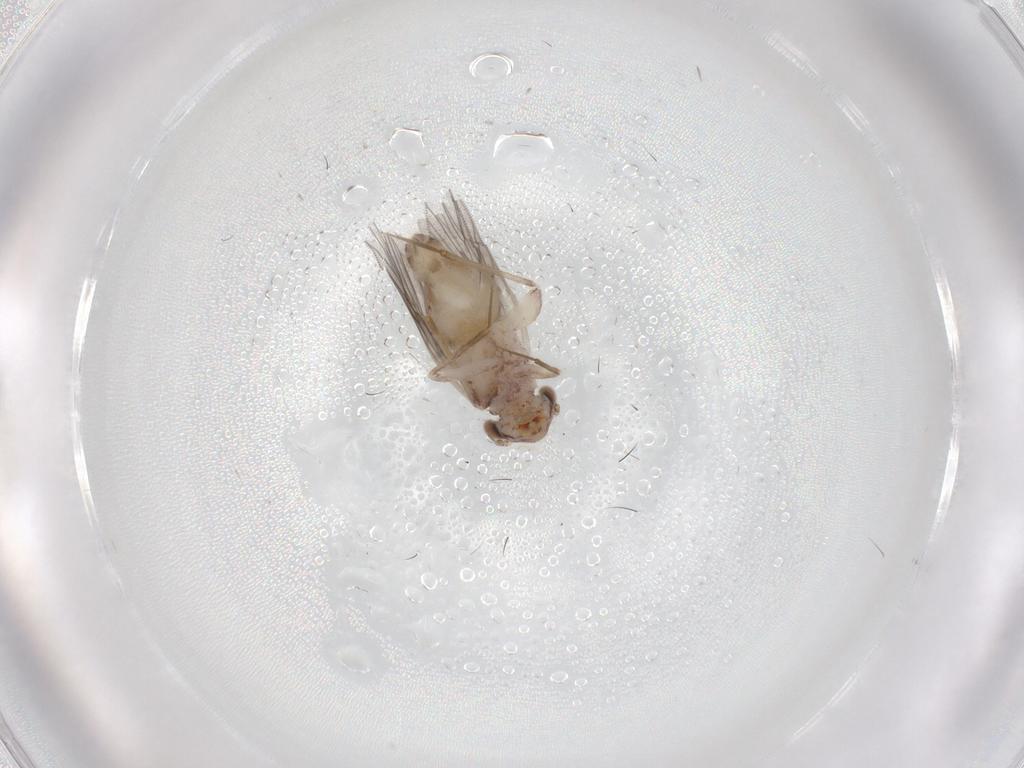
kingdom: Animalia
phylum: Arthropoda
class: Insecta
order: Psocodea
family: Lepidopsocidae
